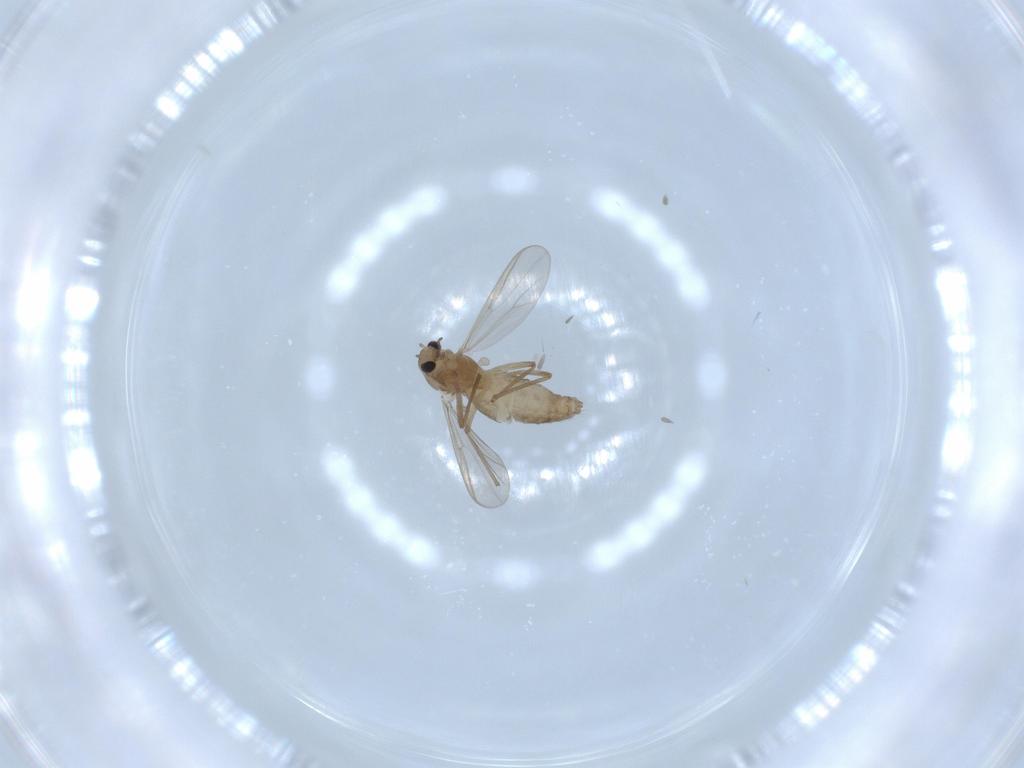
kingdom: Animalia
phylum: Arthropoda
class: Insecta
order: Diptera
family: Chironomidae
